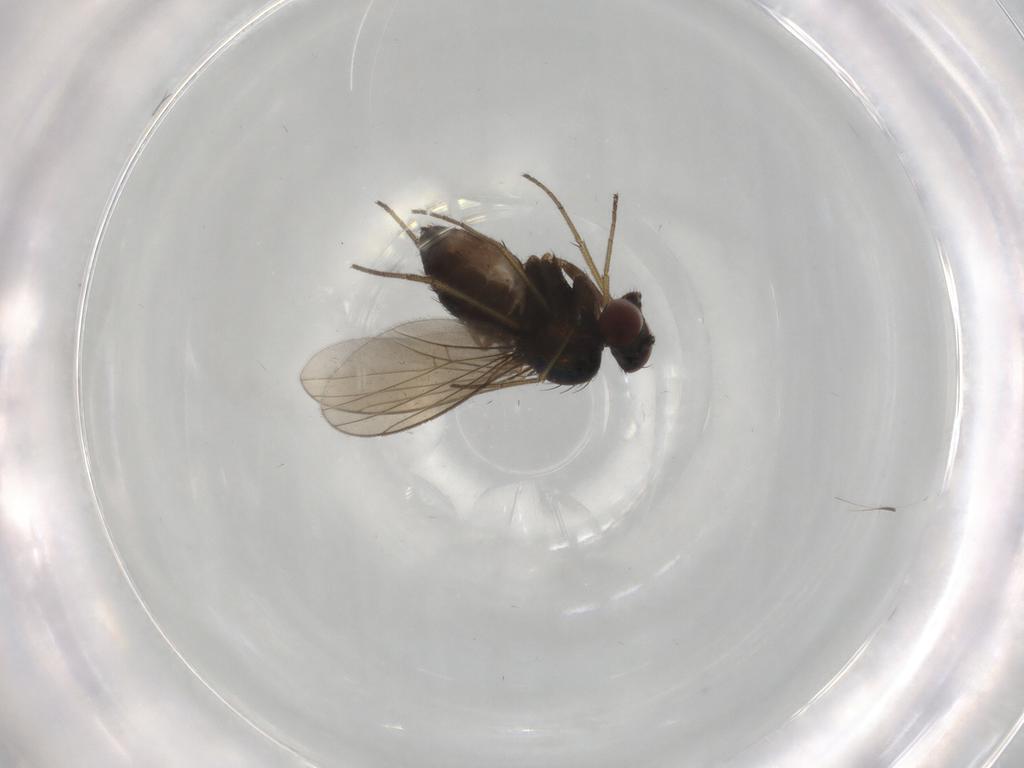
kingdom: Animalia
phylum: Arthropoda
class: Insecta
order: Diptera
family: Dolichopodidae
